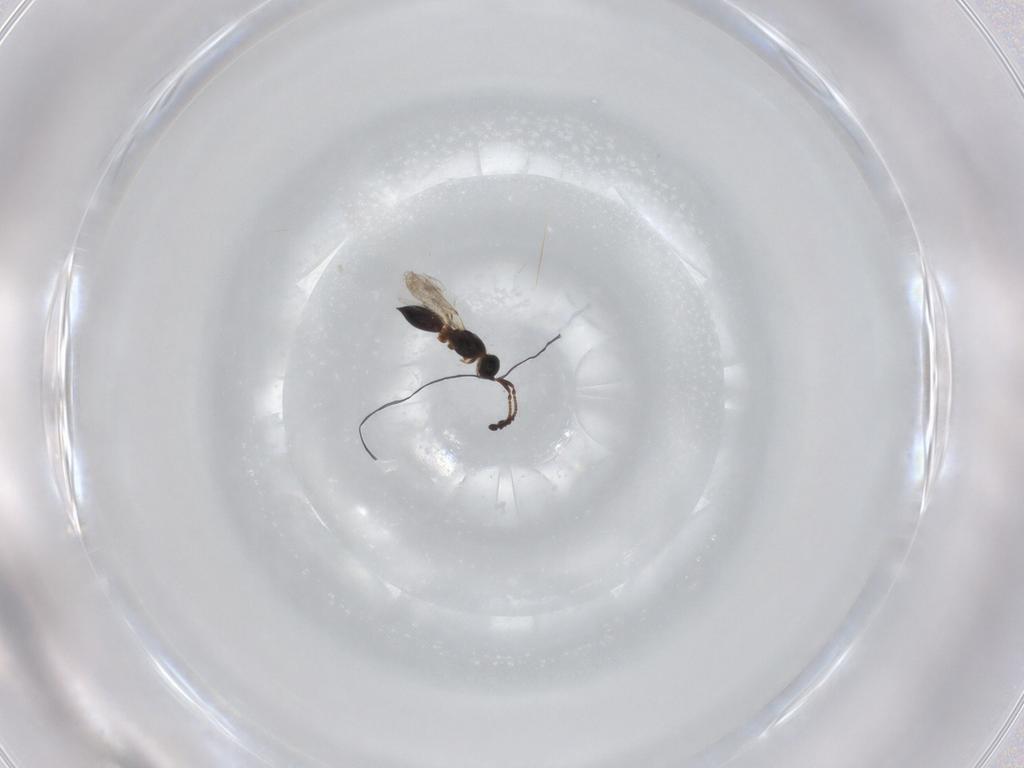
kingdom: Animalia
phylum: Arthropoda
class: Insecta
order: Hymenoptera
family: Diapriidae
